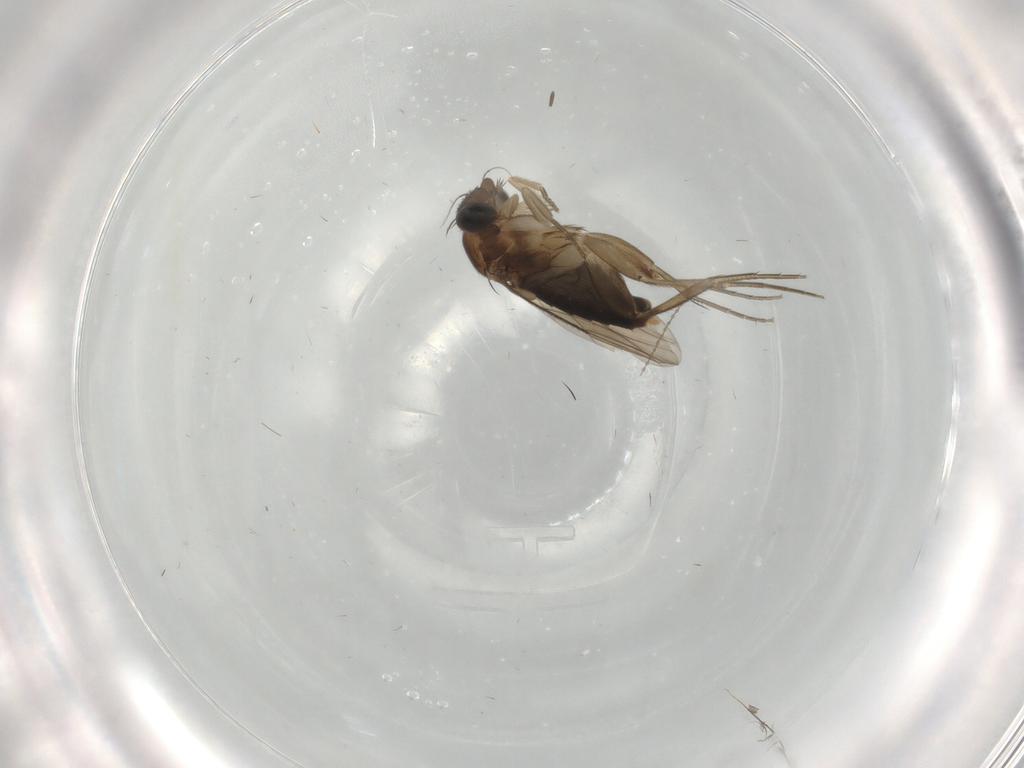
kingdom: Animalia
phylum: Arthropoda
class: Insecta
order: Diptera
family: Phoridae
